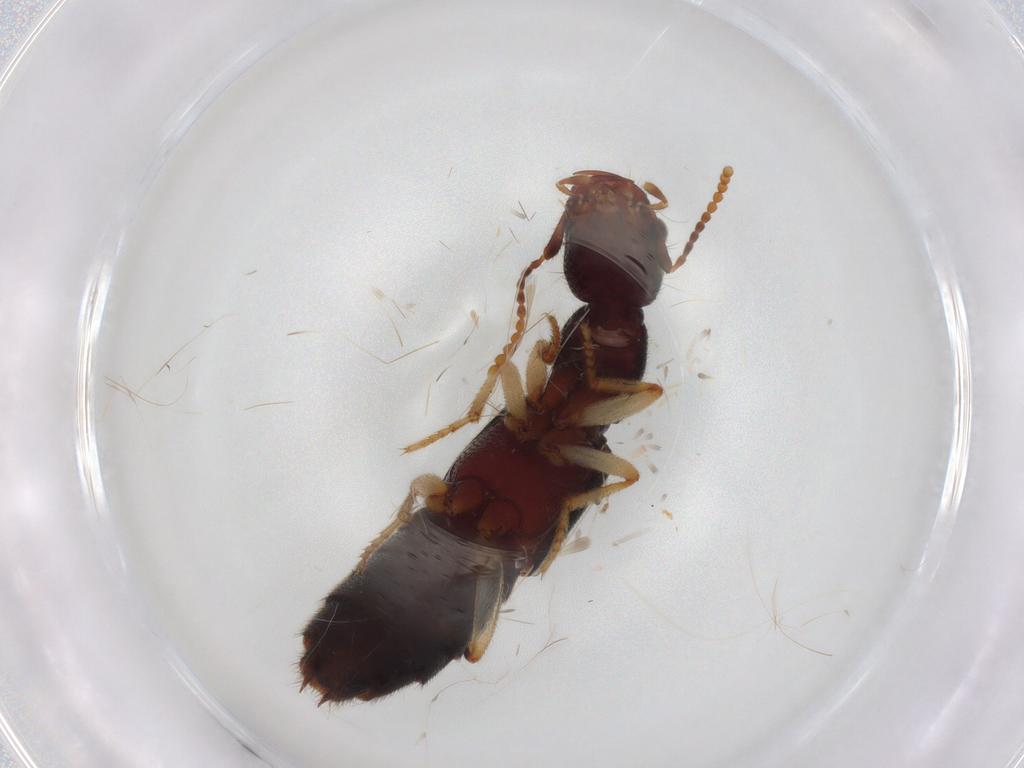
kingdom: Animalia
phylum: Arthropoda
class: Insecta
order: Coleoptera
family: Staphylinidae
